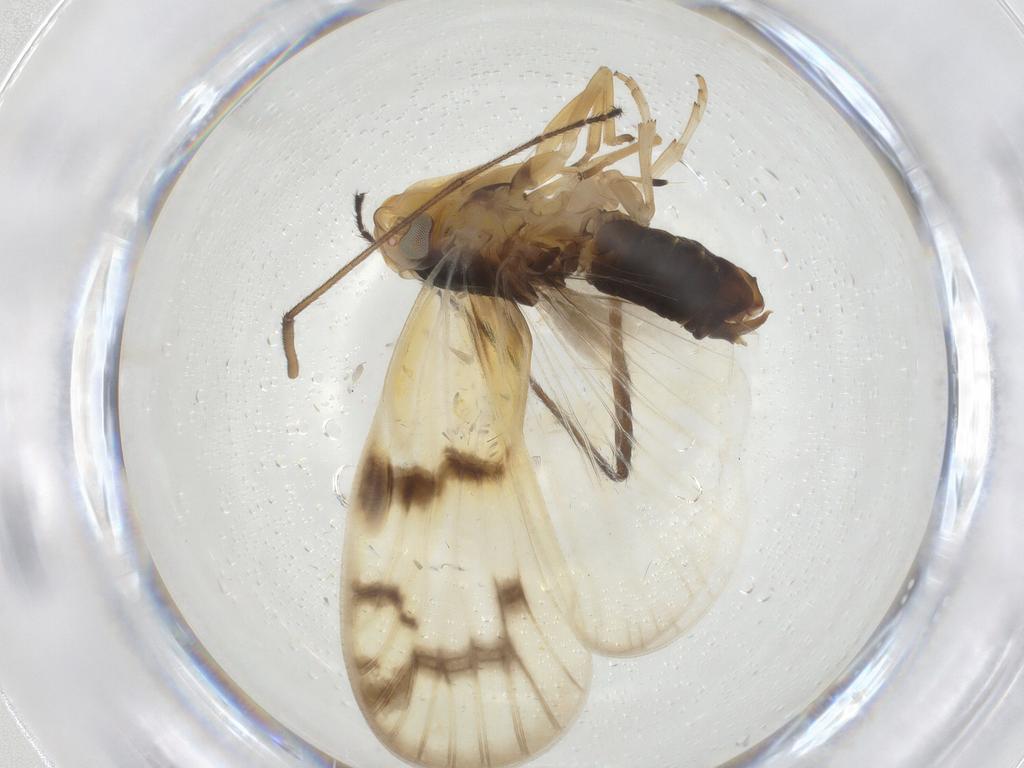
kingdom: Animalia
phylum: Arthropoda
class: Insecta
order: Hemiptera
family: Cixiidae
